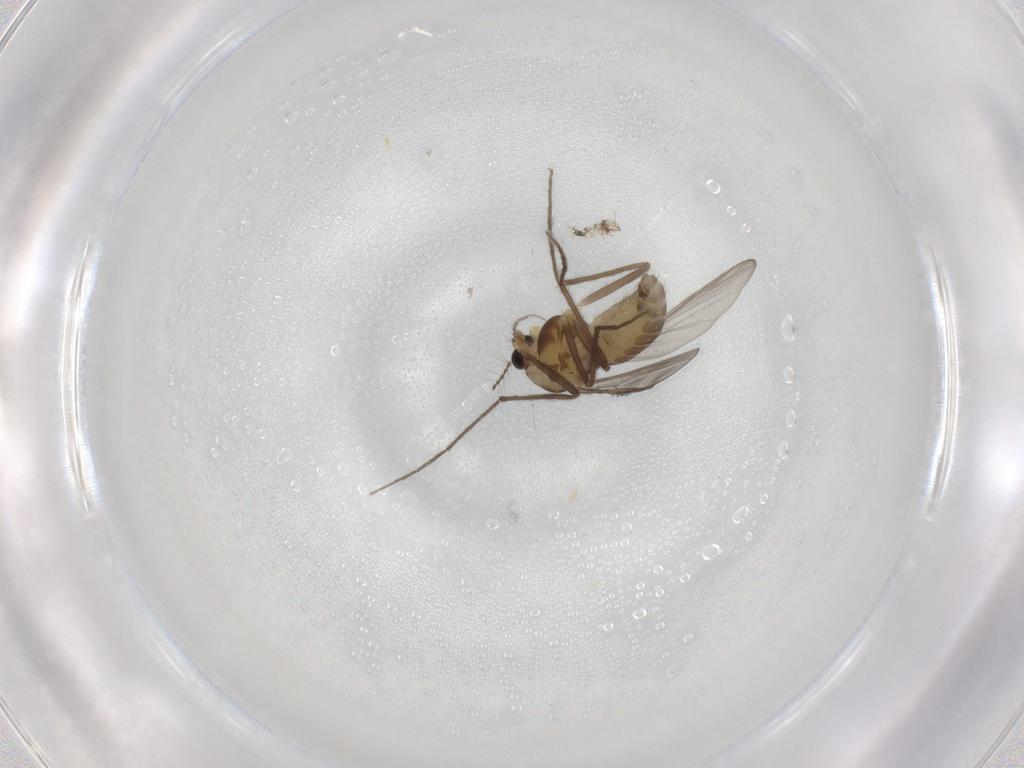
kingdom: Animalia
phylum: Arthropoda
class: Insecta
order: Diptera
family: Chironomidae
